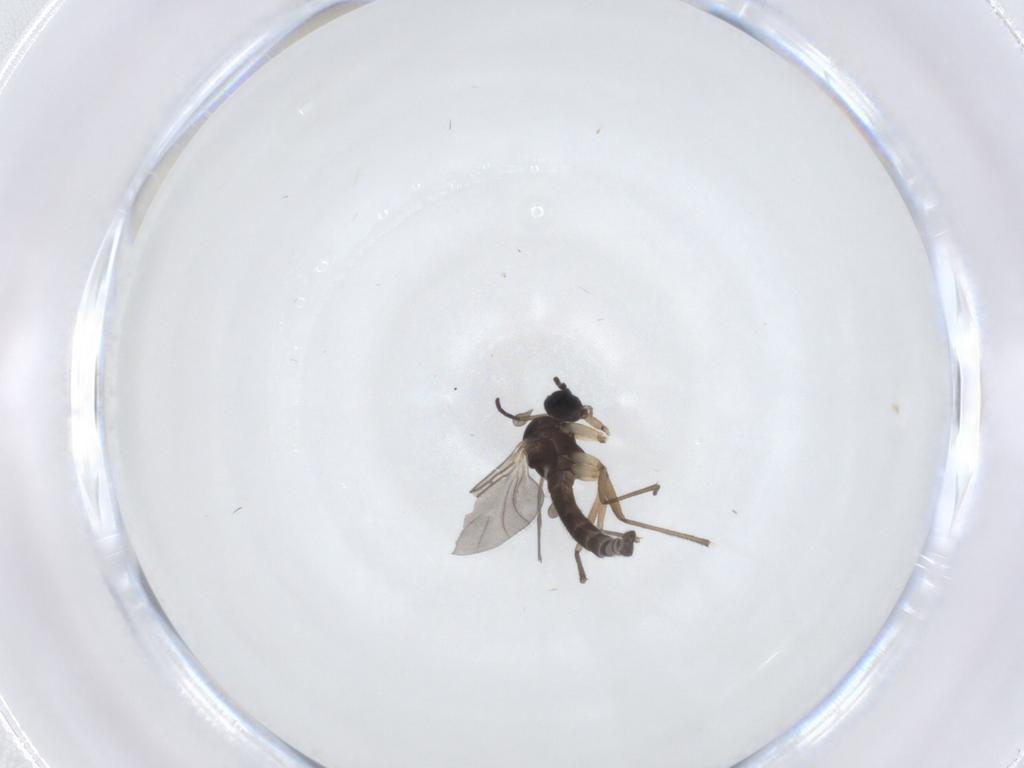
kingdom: Animalia
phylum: Arthropoda
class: Insecta
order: Diptera
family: Sciaridae
